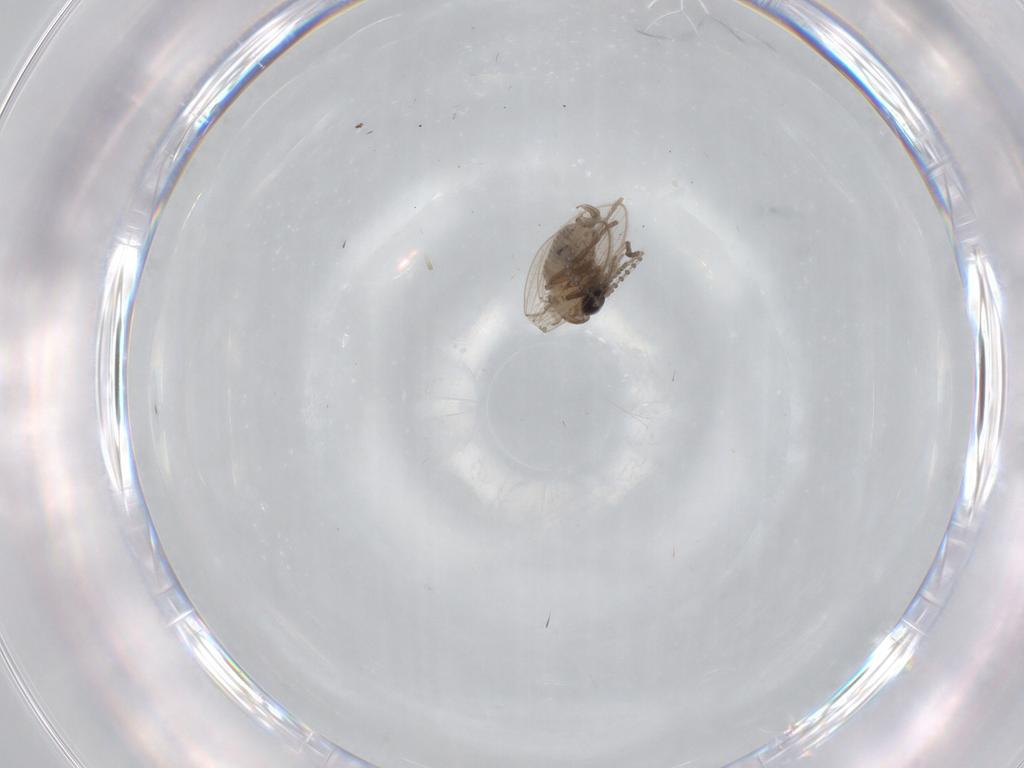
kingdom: Animalia
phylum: Arthropoda
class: Insecta
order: Diptera
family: Psychodidae
